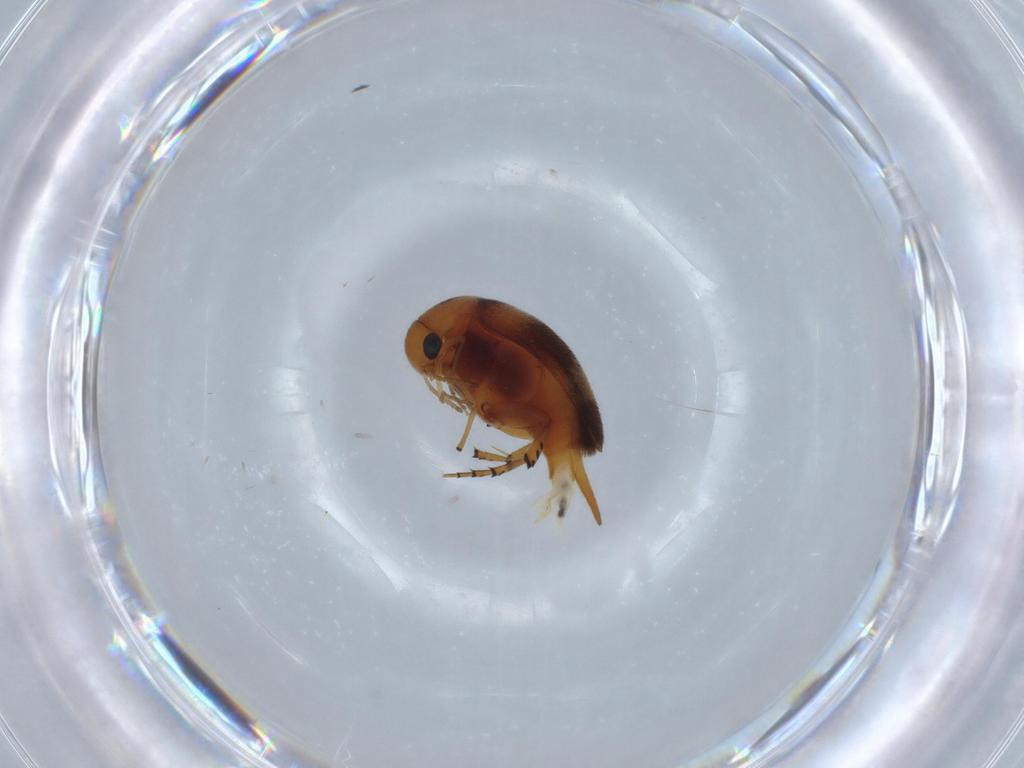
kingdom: Animalia
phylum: Arthropoda
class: Insecta
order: Coleoptera
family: Mordellidae
